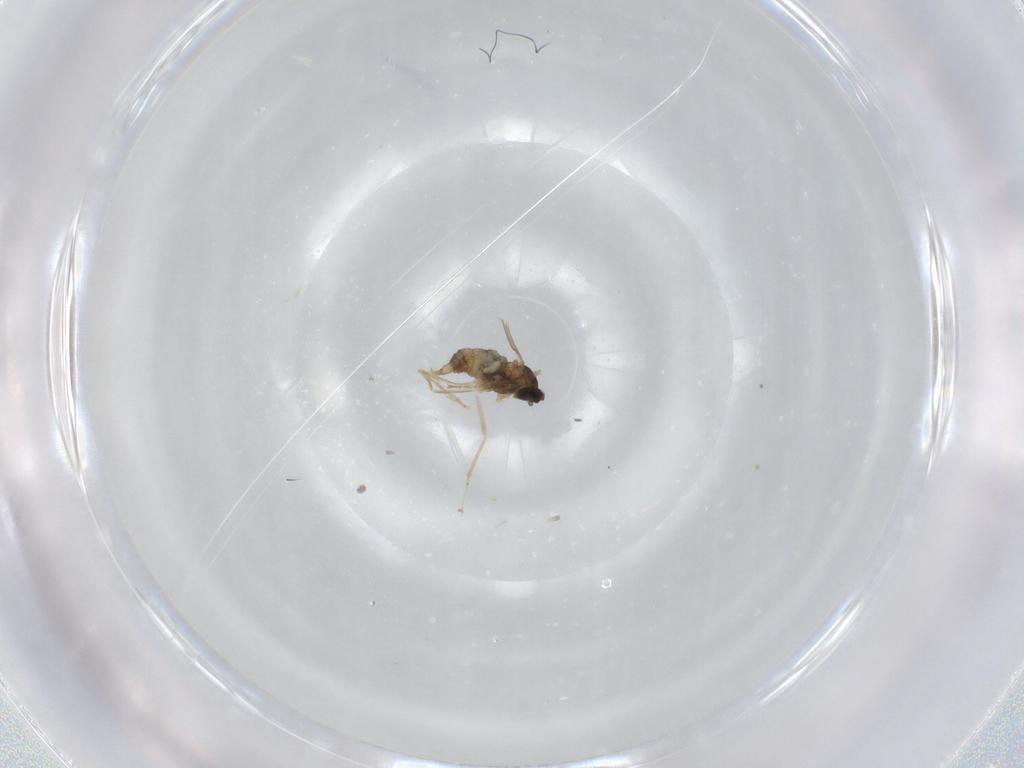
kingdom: Animalia
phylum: Arthropoda
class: Insecta
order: Diptera
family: Cecidomyiidae
